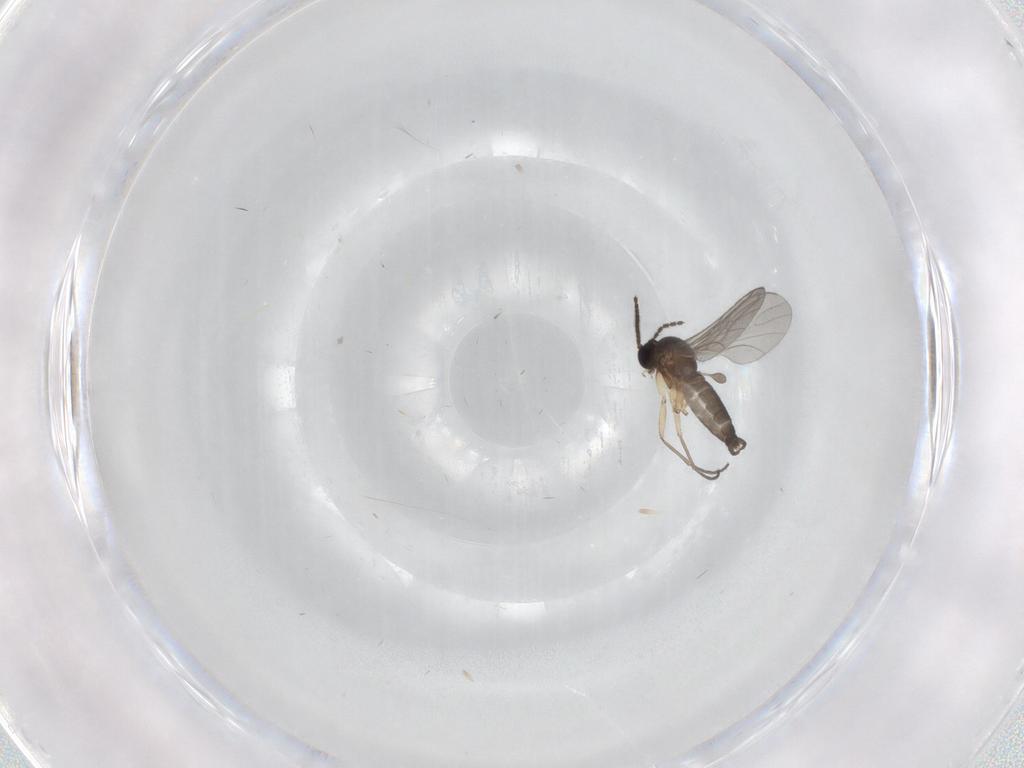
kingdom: Animalia
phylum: Arthropoda
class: Insecta
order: Diptera
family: Sciaridae
